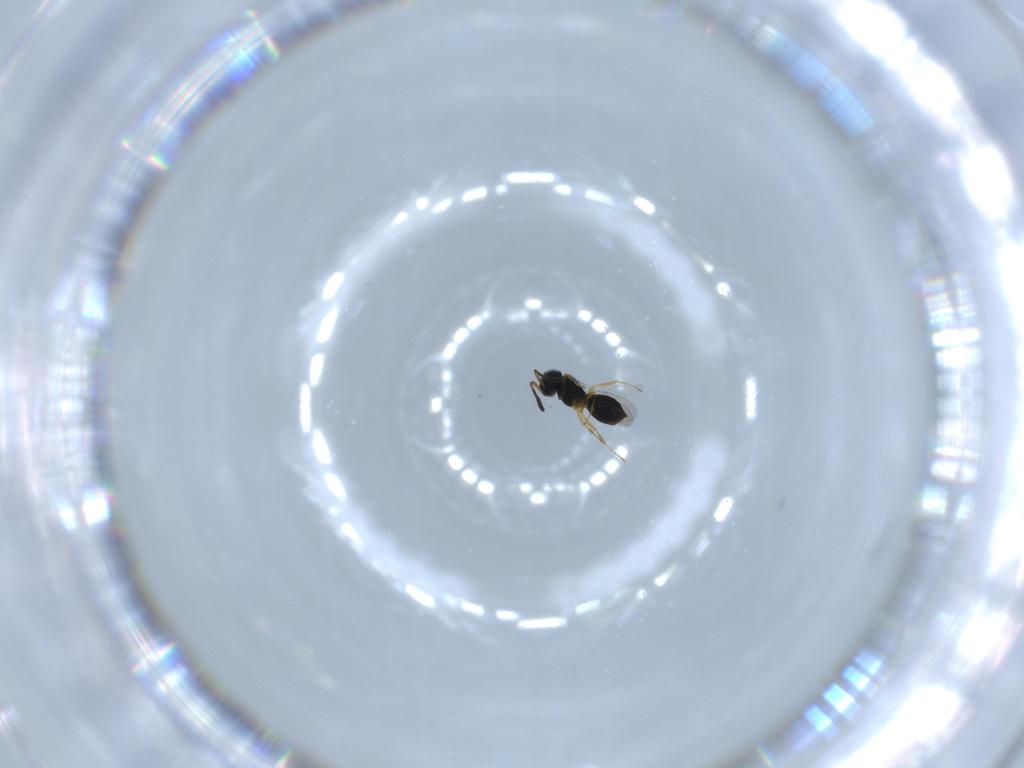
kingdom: Animalia
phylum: Arthropoda
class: Insecta
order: Hymenoptera
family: Scelionidae
